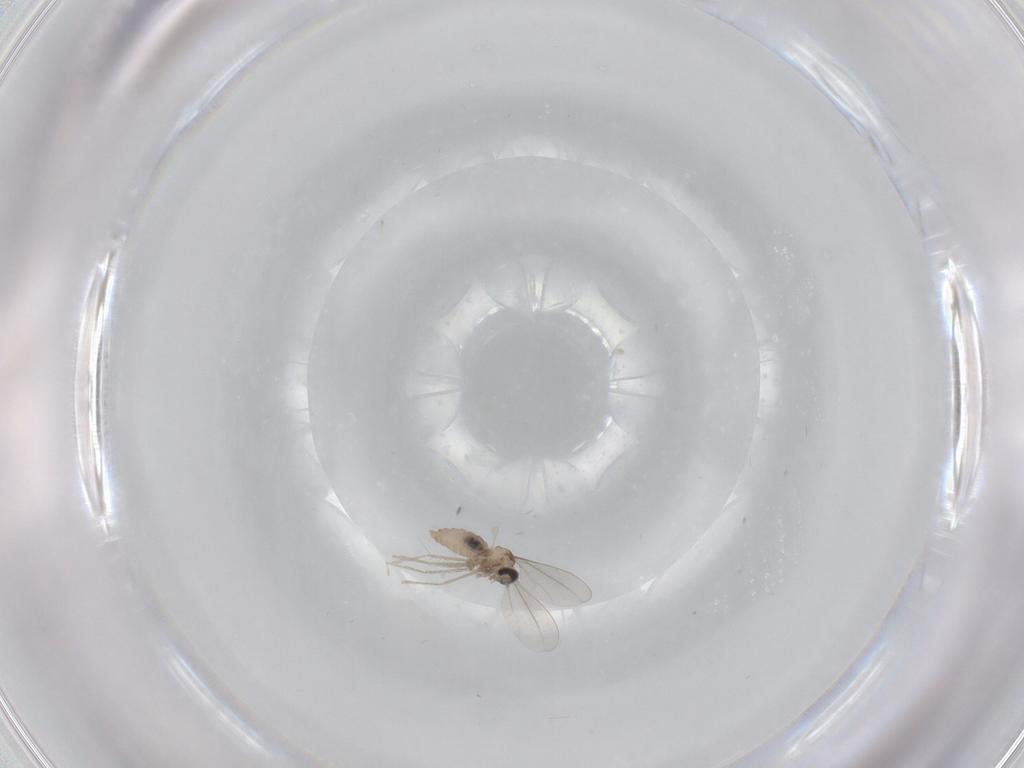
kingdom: Animalia
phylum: Arthropoda
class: Insecta
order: Diptera
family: Cecidomyiidae
